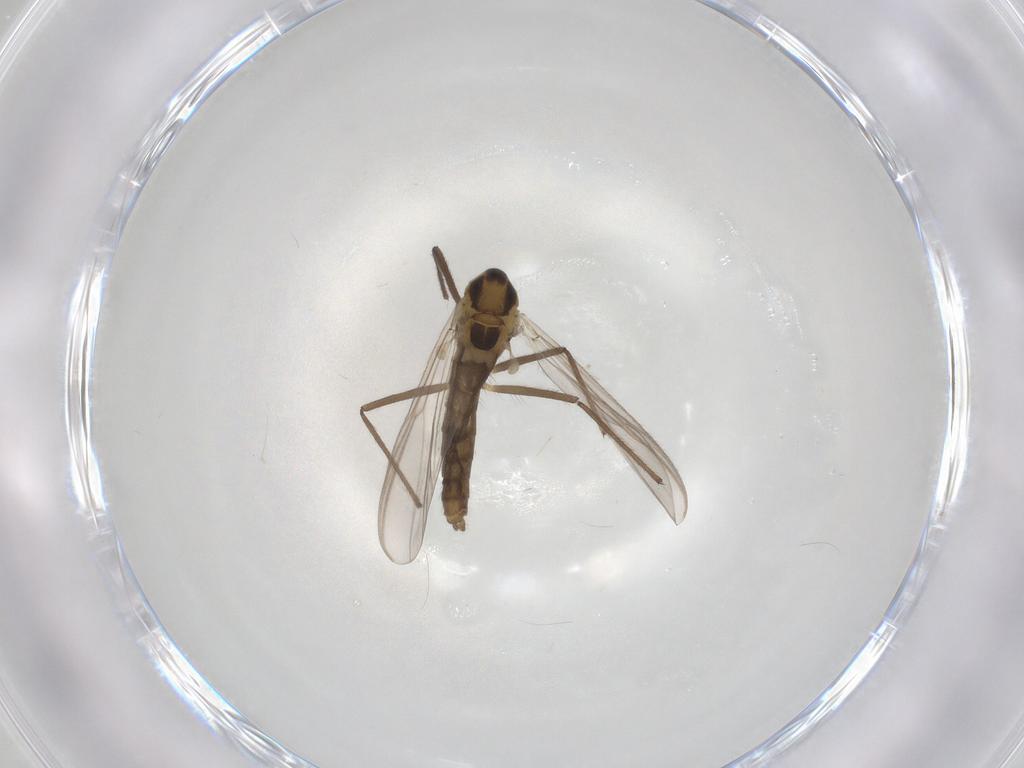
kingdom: Animalia
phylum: Arthropoda
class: Insecta
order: Diptera
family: Chironomidae
